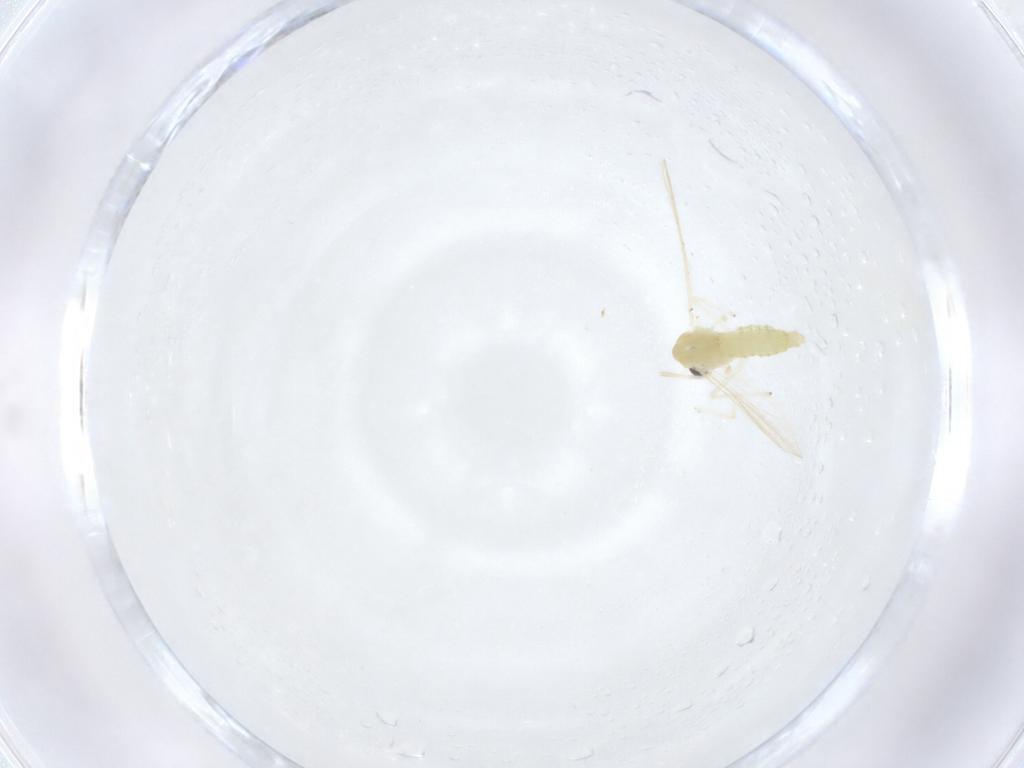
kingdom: Animalia
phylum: Arthropoda
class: Insecta
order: Diptera
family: Chironomidae
